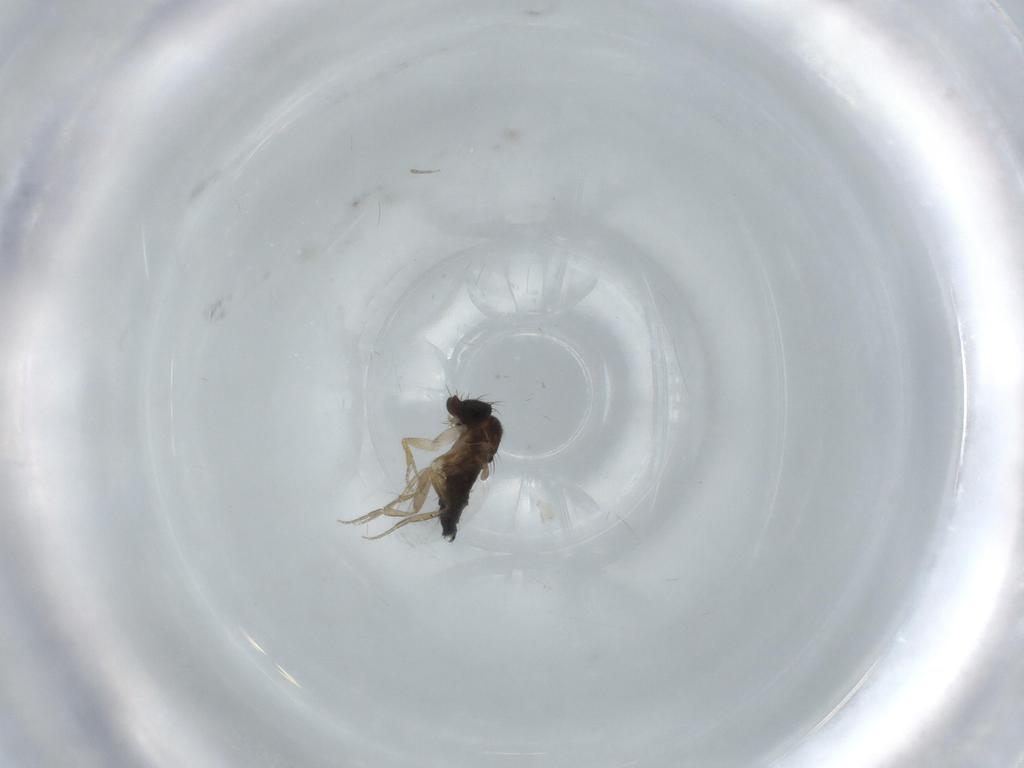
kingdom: Animalia
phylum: Arthropoda
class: Insecta
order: Diptera
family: Phoridae
